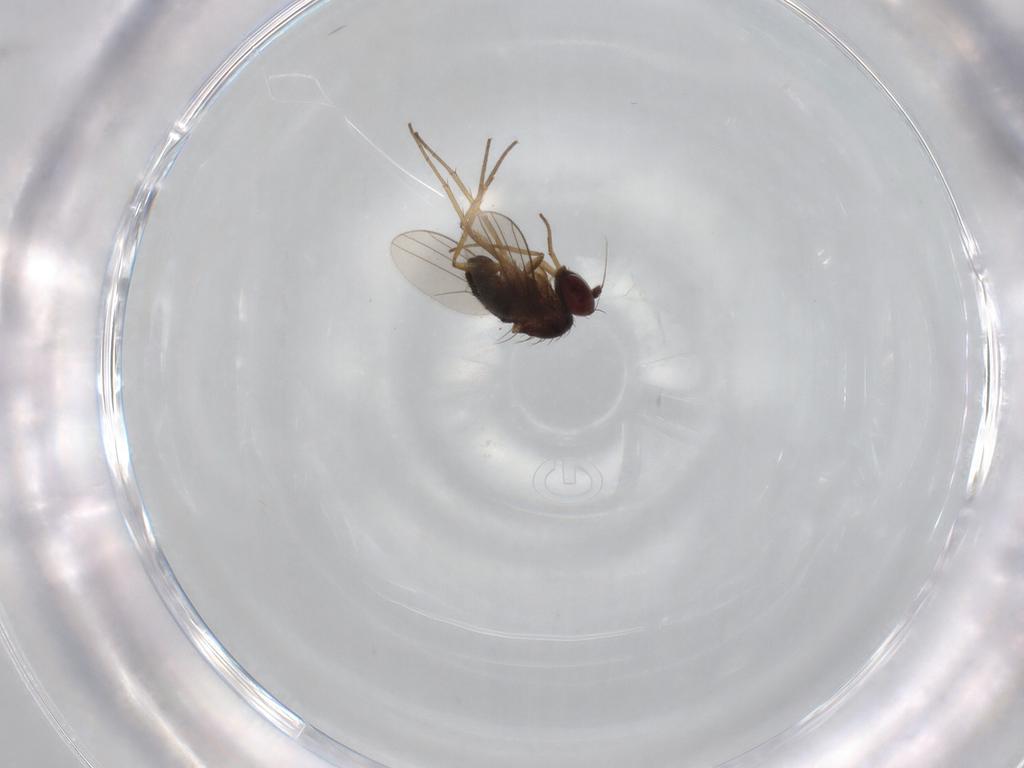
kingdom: Animalia
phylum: Arthropoda
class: Insecta
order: Diptera
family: Dolichopodidae
